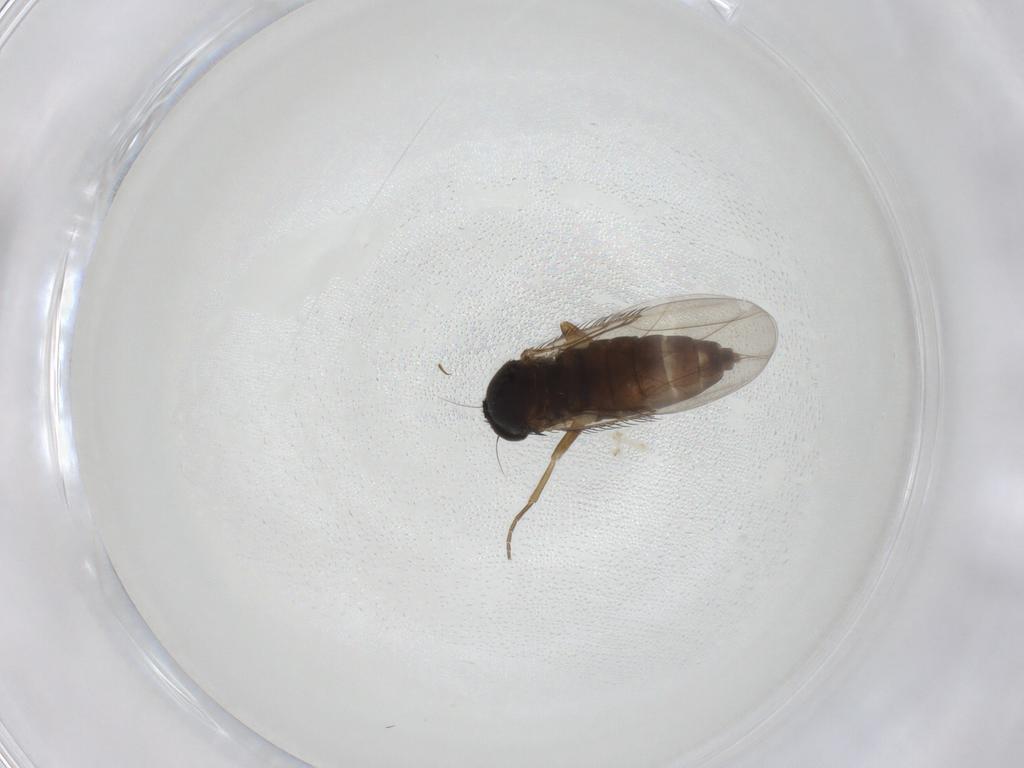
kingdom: Animalia
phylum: Arthropoda
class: Insecta
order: Diptera
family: Phoridae
